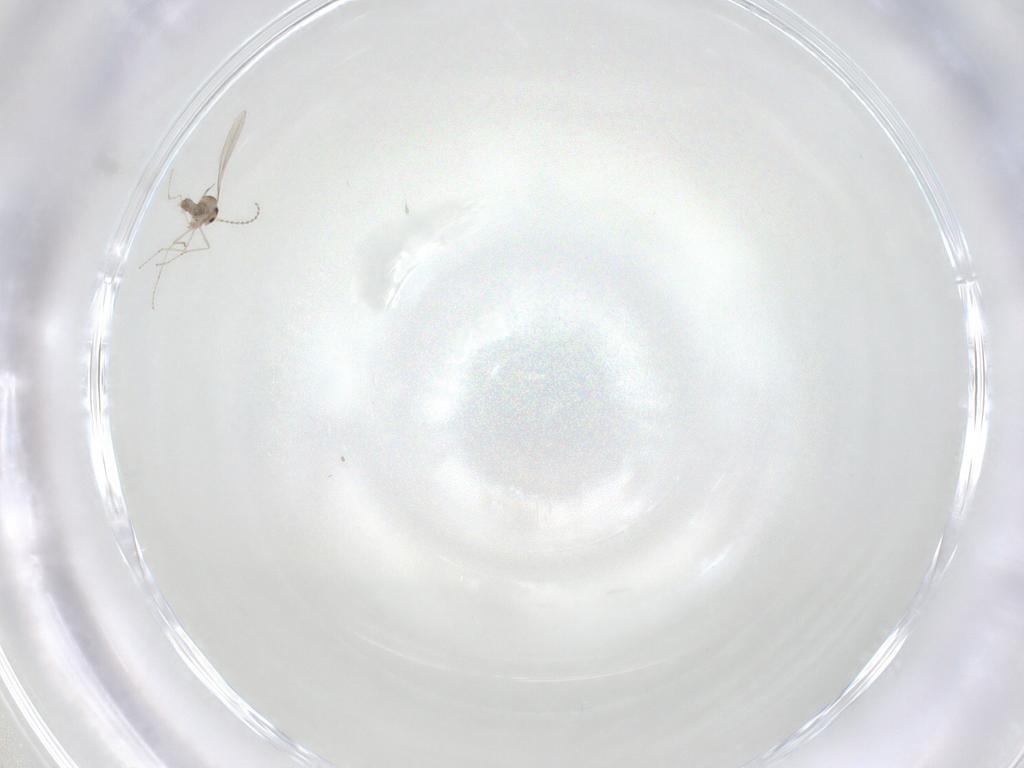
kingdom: Animalia
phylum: Arthropoda
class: Insecta
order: Diptera
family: Cecidomyiidae
